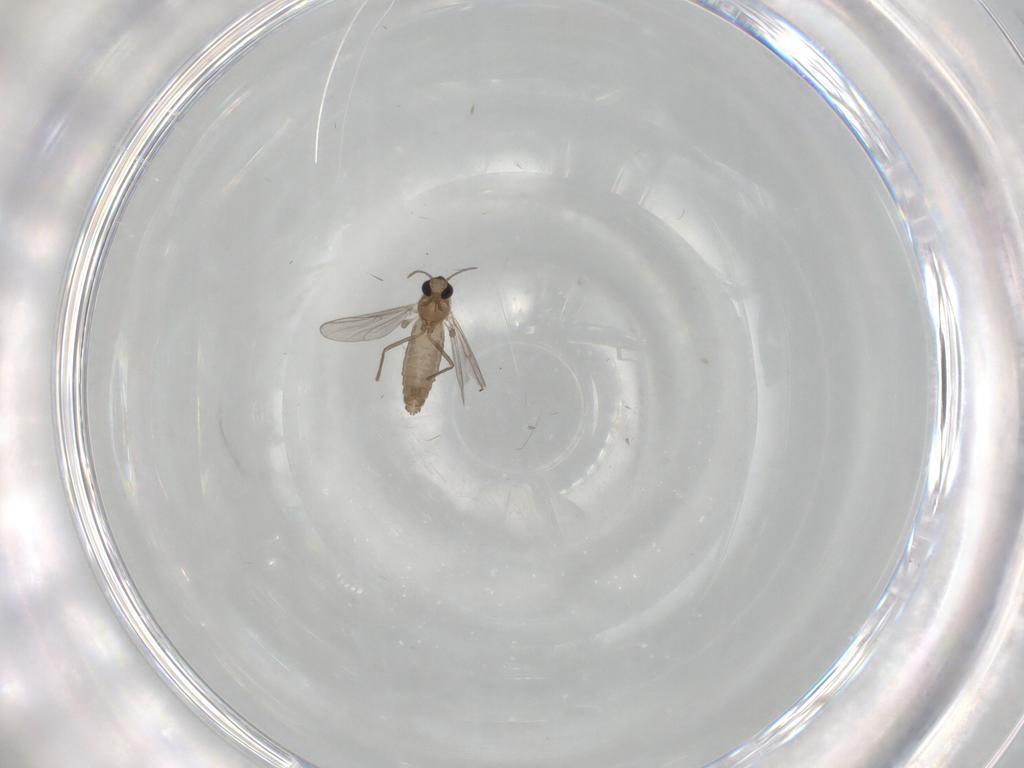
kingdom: Animalia
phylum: Arthropoda
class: Insecta
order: Diptera
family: Chironomidae
